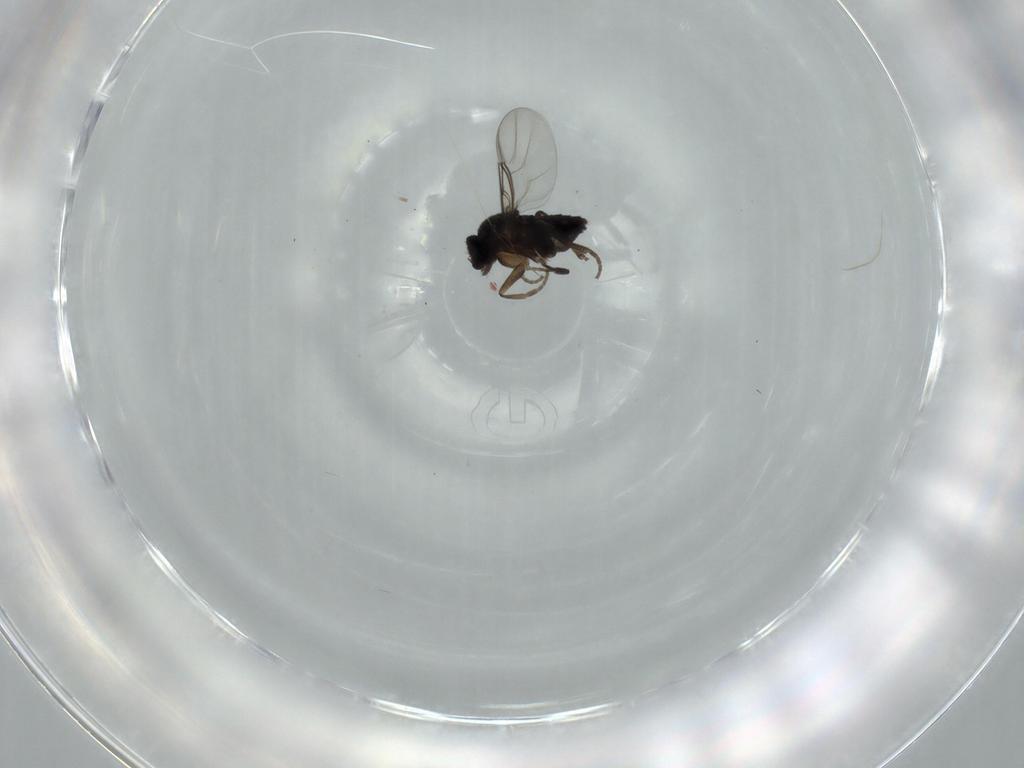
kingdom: Animalia
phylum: Arthropoda
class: Insecta
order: Diptera
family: Phoridae
